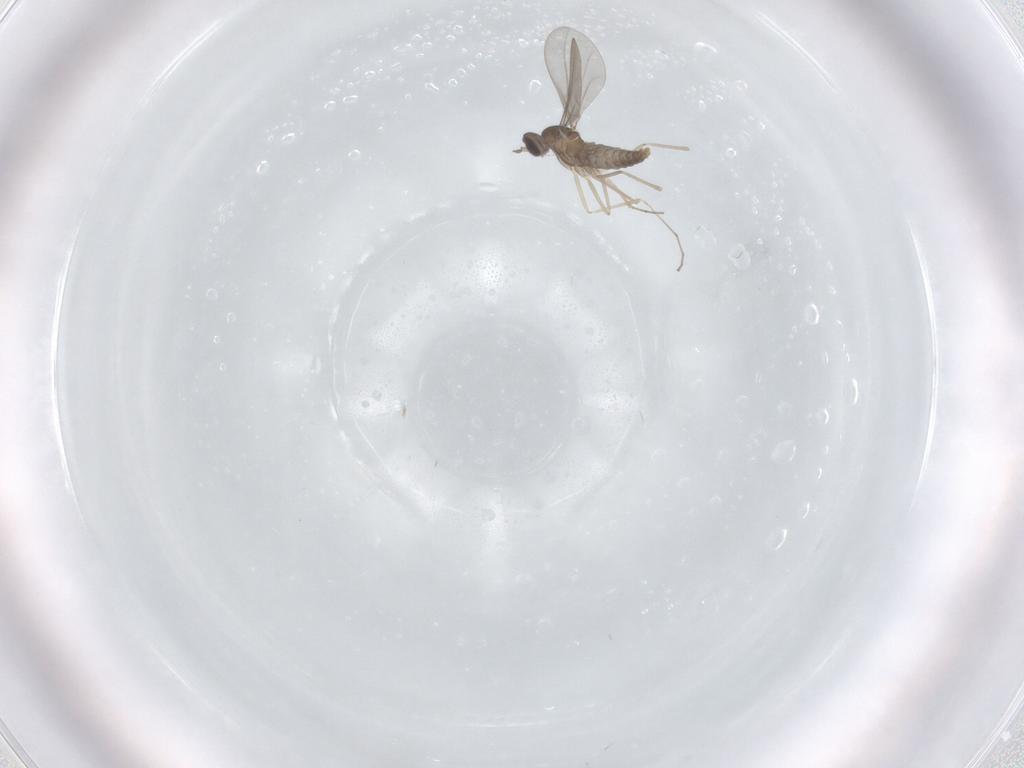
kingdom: Animalia
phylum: Arthropoda
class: Insecta
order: Diptera
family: Cecidomyiidae
